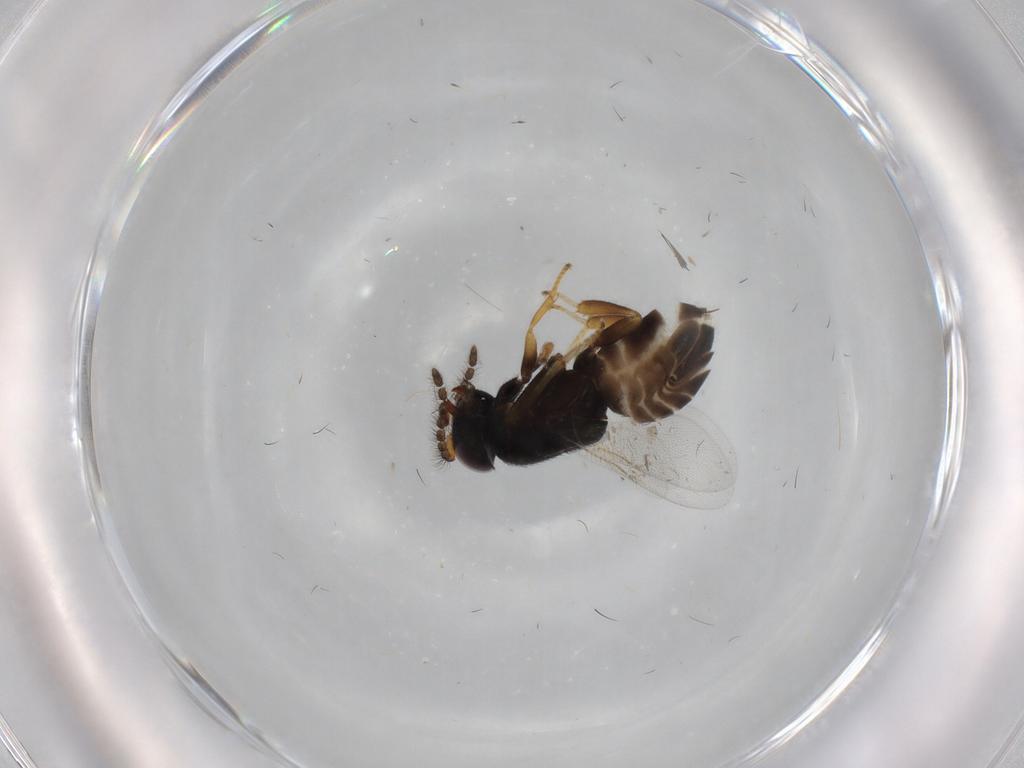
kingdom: Animalia
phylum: Arthropoda
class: Insecta
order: Hymenoptera
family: Encyrtidae
